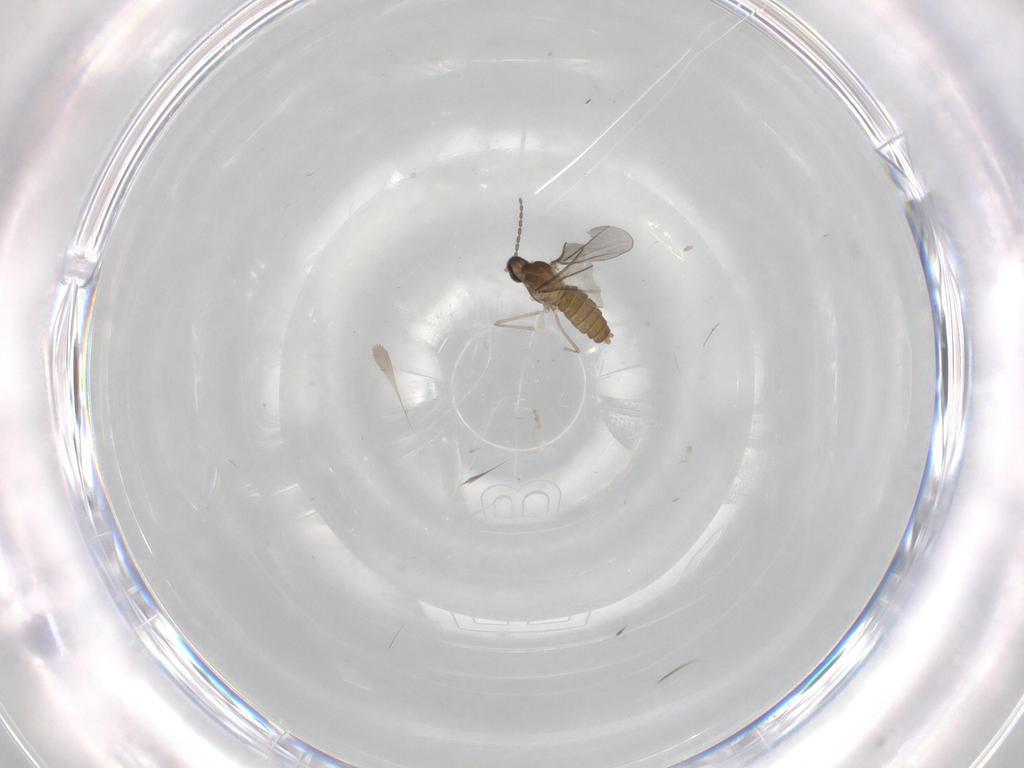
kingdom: Animalia
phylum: Arthropoda
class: Insecta
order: Diptera
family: Cecidomyiidae
